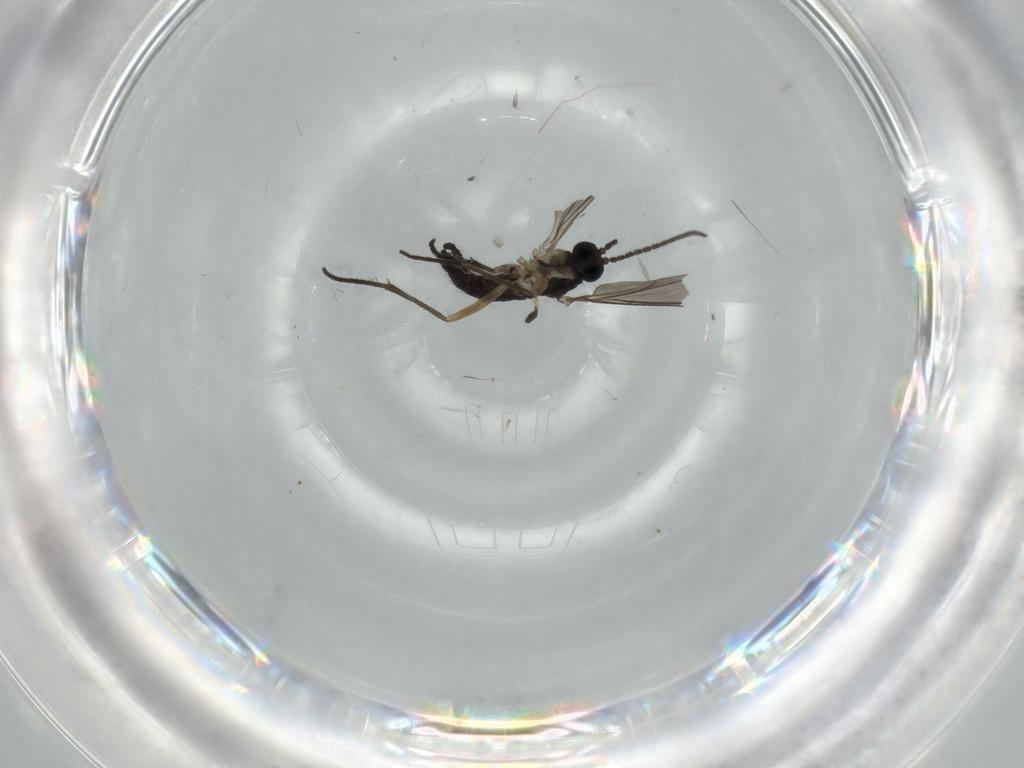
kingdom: Animalia
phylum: Arthropoda
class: Insecta
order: Diptera
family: Sciaridae
